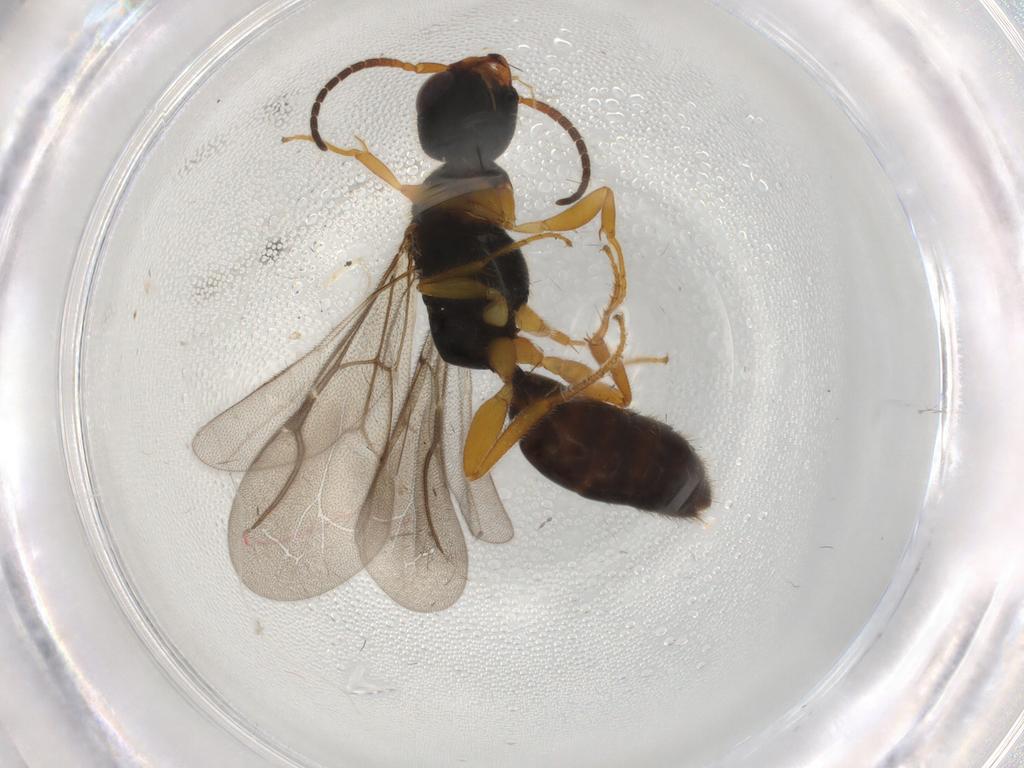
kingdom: Animalia
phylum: Arthropoda
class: Insecta
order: Hymenoptera
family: Bethylidae
